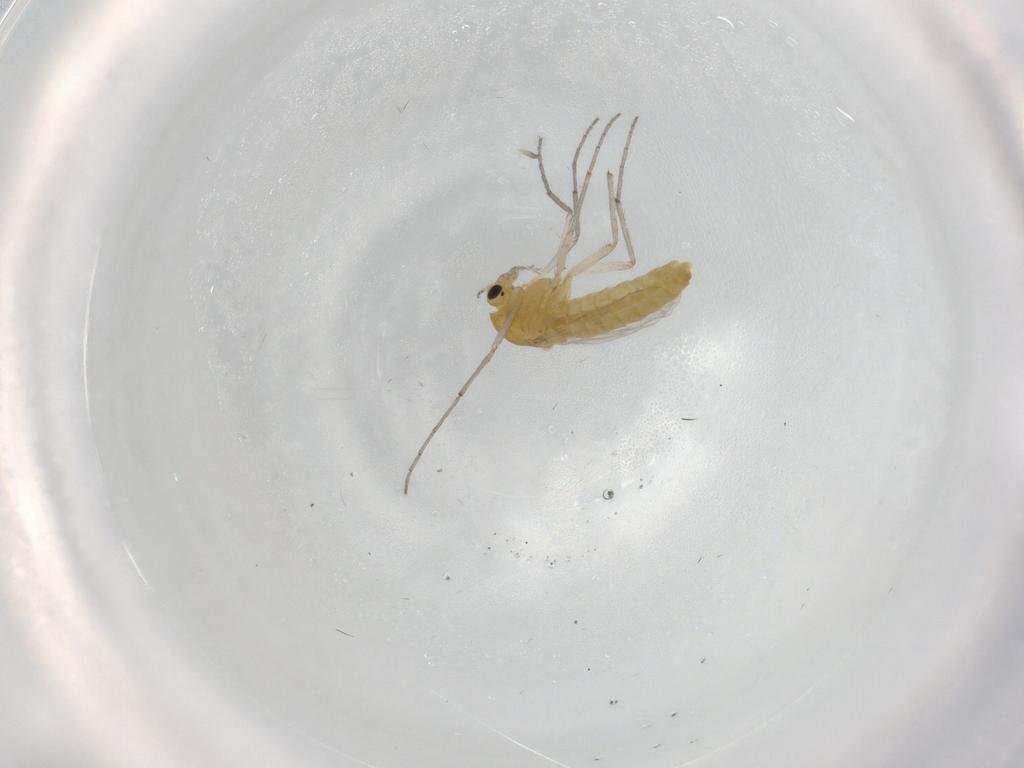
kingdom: Animalia
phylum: Arthropoda
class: Insecta
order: Diptera
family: Chironomidae
